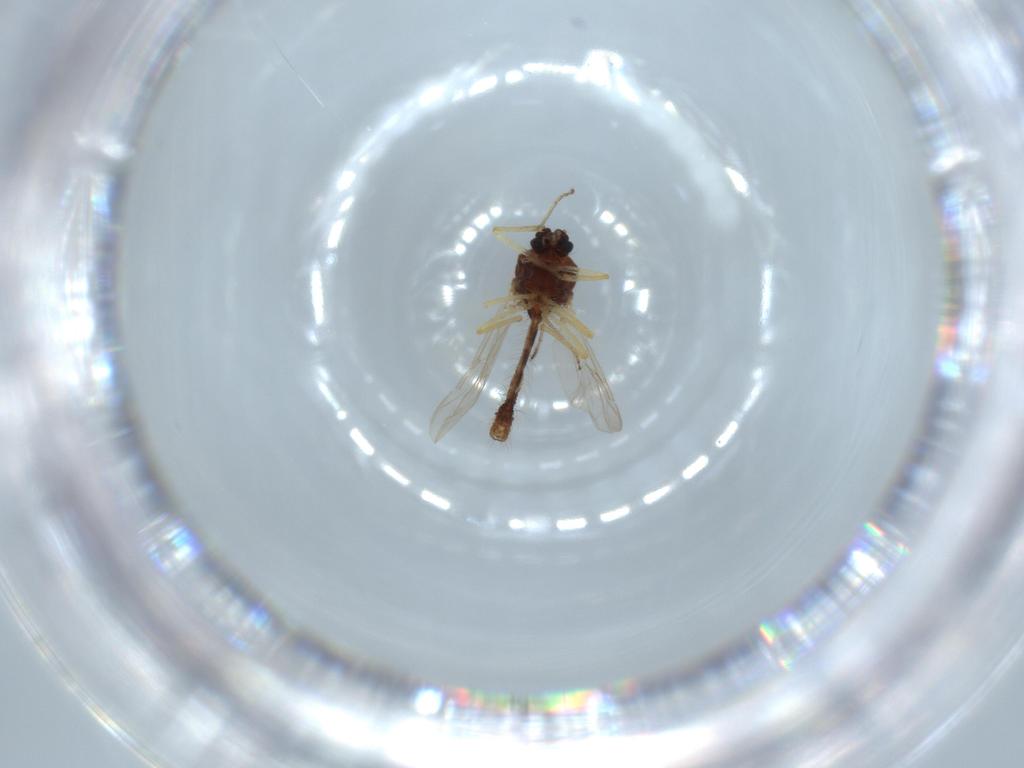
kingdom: Animalia
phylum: Arthropoda
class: Insecta
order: Diptera
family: Ceratopogonidae
